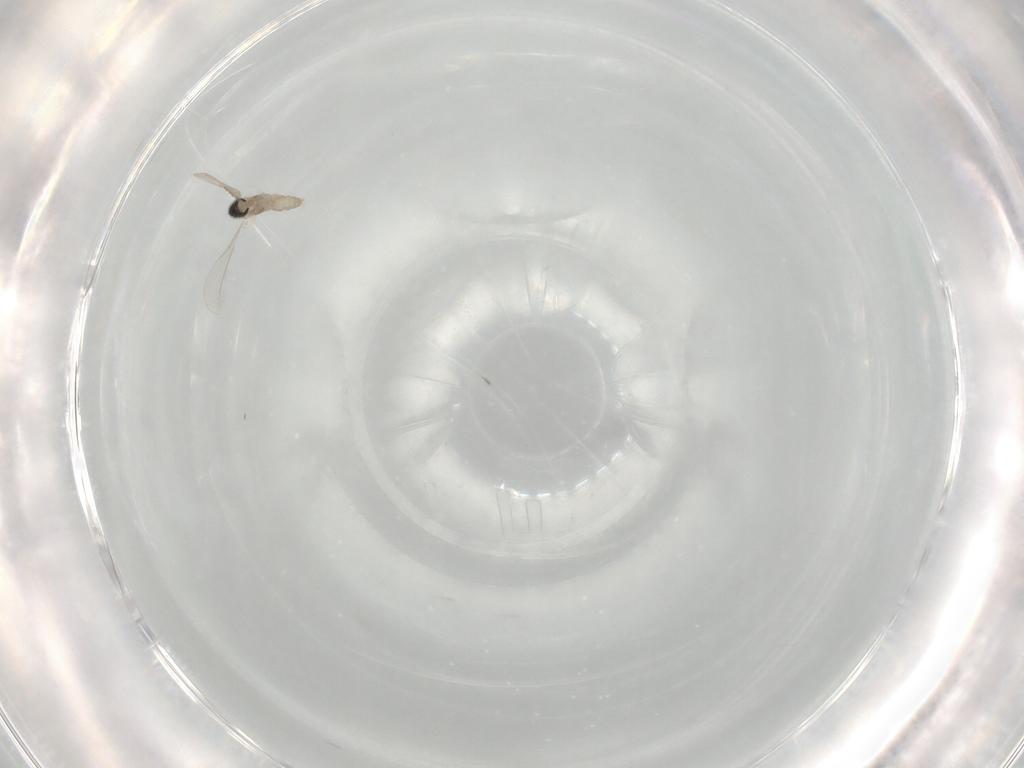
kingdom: Animalia
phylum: Arthropoda
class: Insecta
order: Diptera
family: Cecidomyiidae
